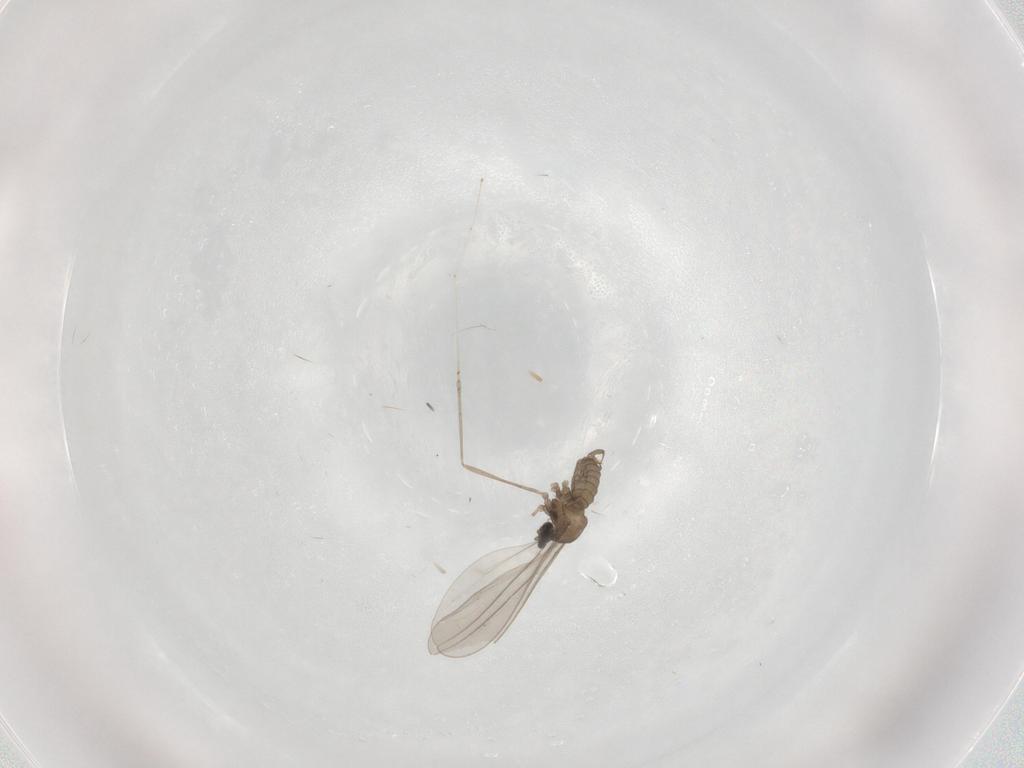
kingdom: Animalia
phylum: Arthropoda
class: Insecta
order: Diptera
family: Cecidomyiidae
